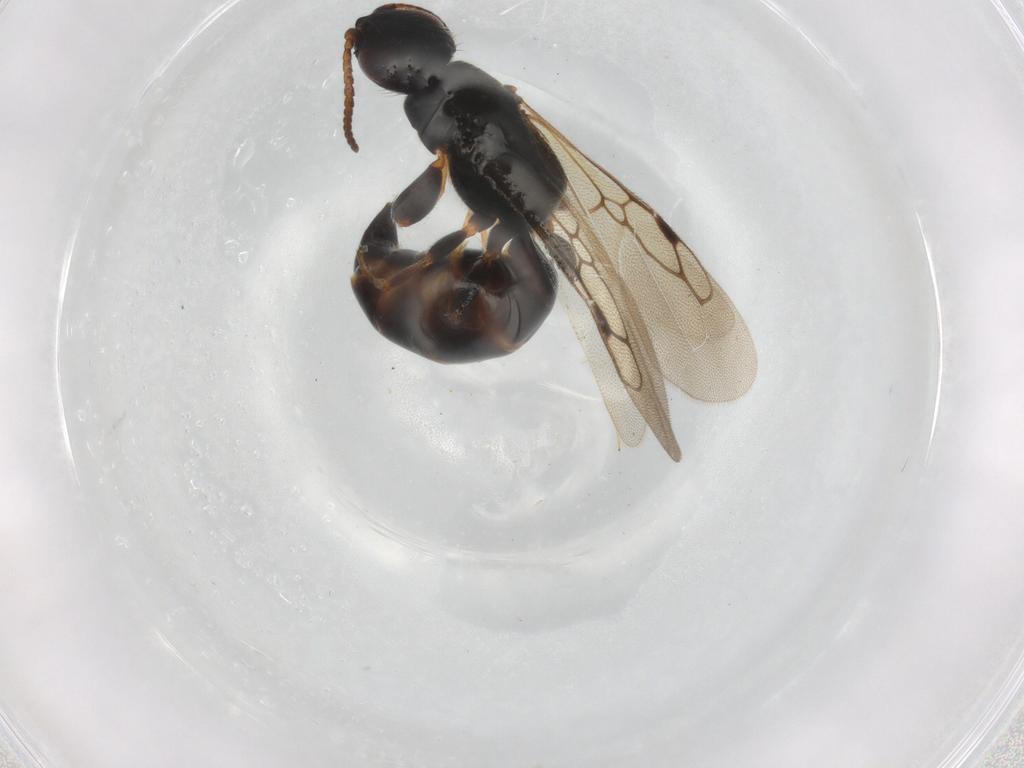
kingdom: Animalia
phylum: Arthropoda
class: Insecta
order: Hymenoptera
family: Bethylidae
